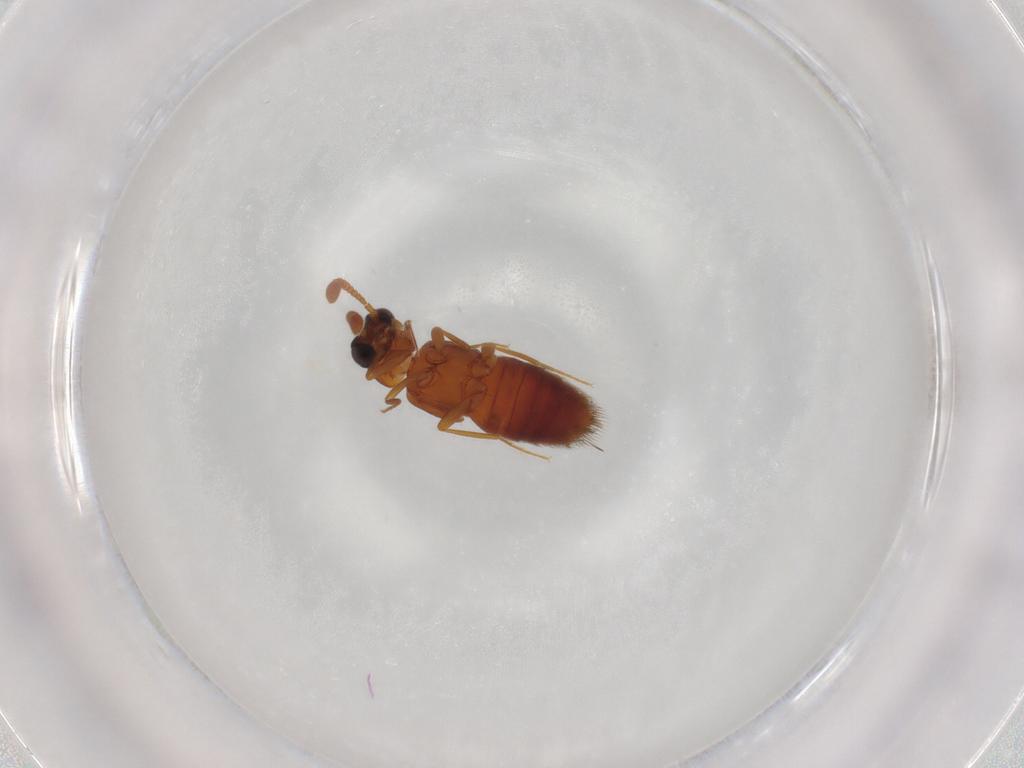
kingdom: Animalia
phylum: Arthropoda
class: Insecta
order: Coleoptera
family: Staphylinidae
